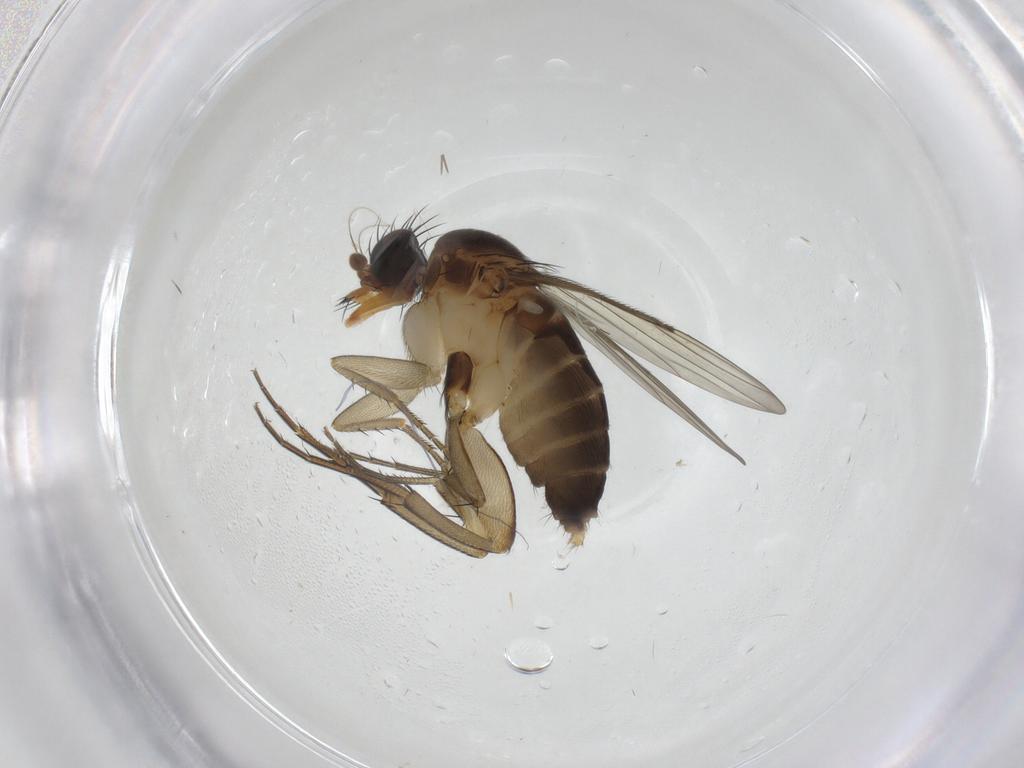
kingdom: Animalia
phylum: Arthropoda
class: Insecta
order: Diptera
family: Phoridae
